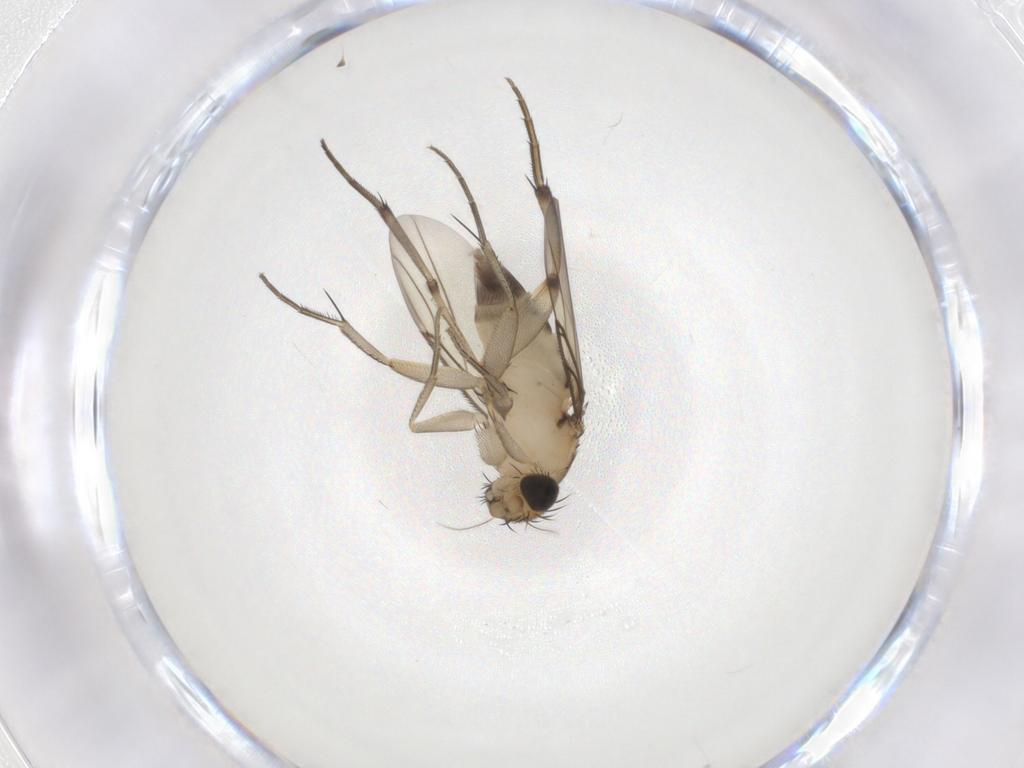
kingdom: Animalia
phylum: Arthropoda
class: Insecta
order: Diptera
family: Phoridae
